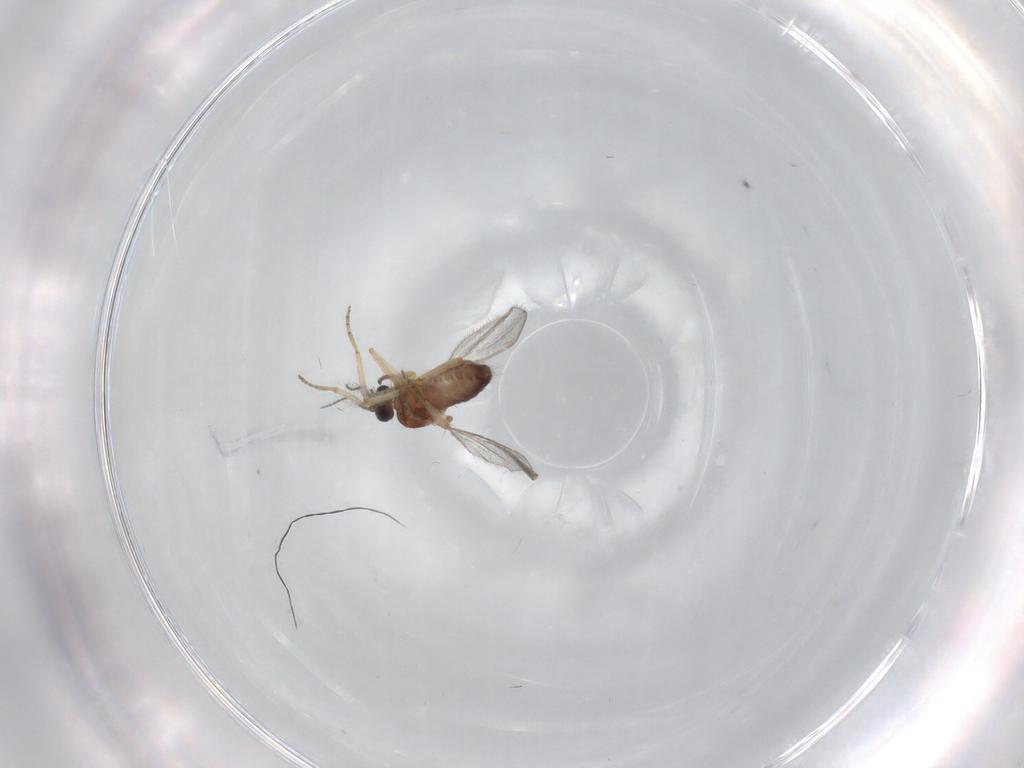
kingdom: Animalia
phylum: Arthropoda
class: Insecta
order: Diptera
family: Ceratopogonidae
